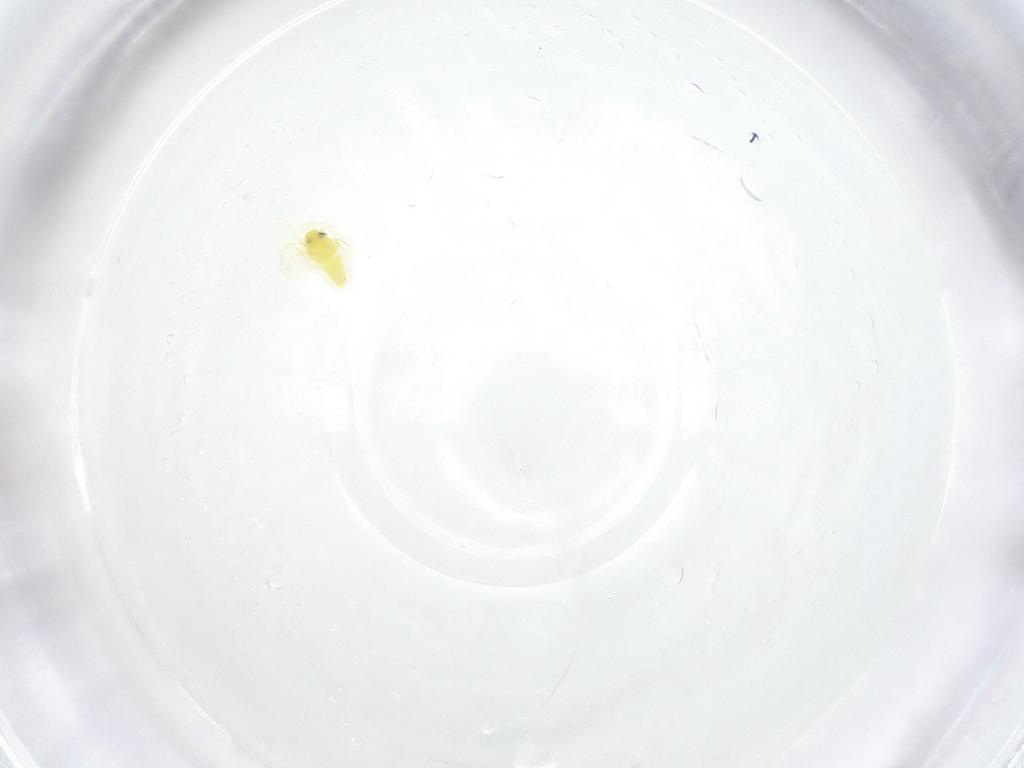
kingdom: Animalia
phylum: Arthropoda
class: Insecta
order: Hemiptera
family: Aleyrodidae
